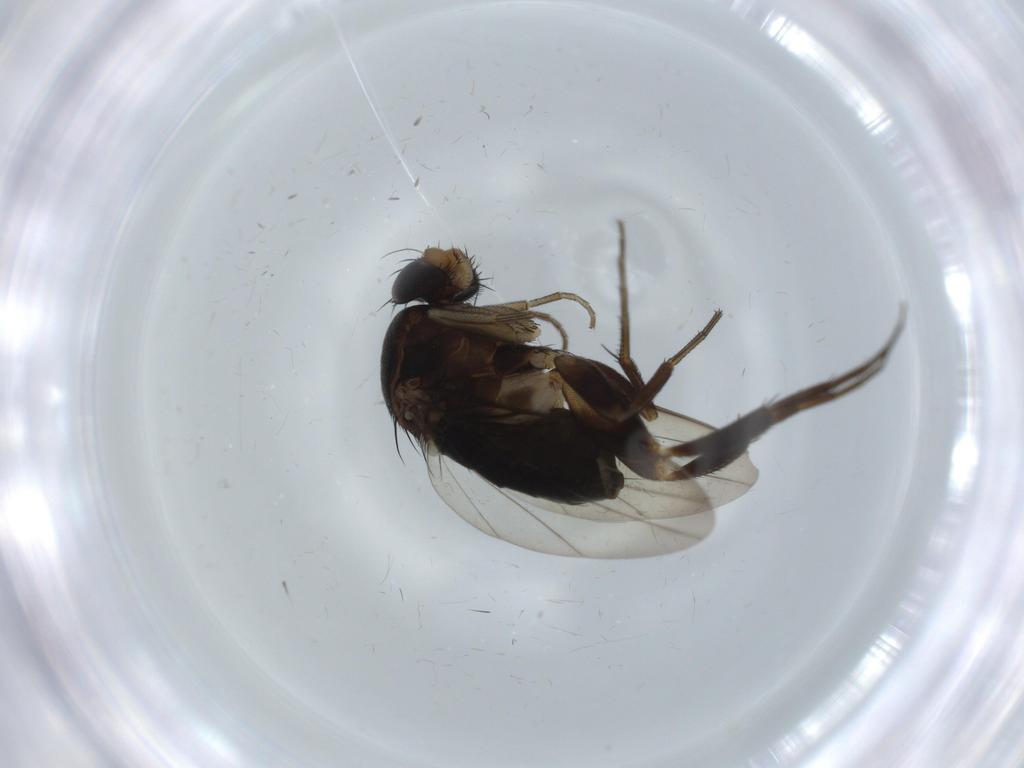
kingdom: Animalia
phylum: Arthropoda
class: Insecta
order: Diptera
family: Phoridae
